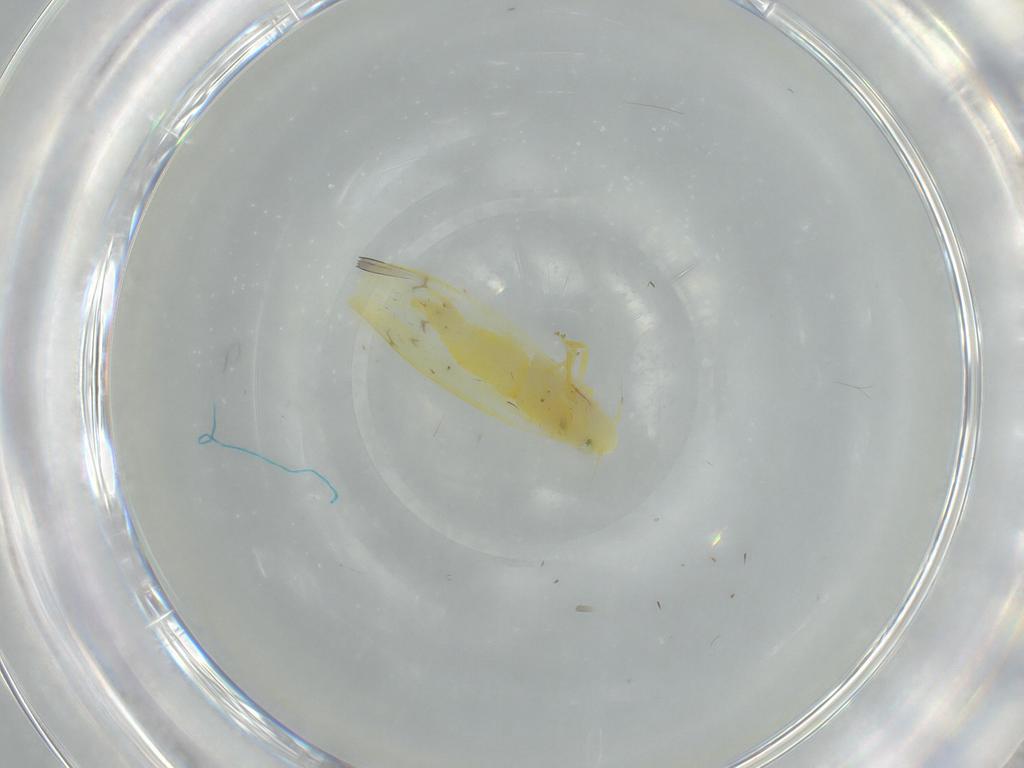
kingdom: Animalia
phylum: Arthropoda
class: Insecta
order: Hemiptera
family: Cicadellidae
